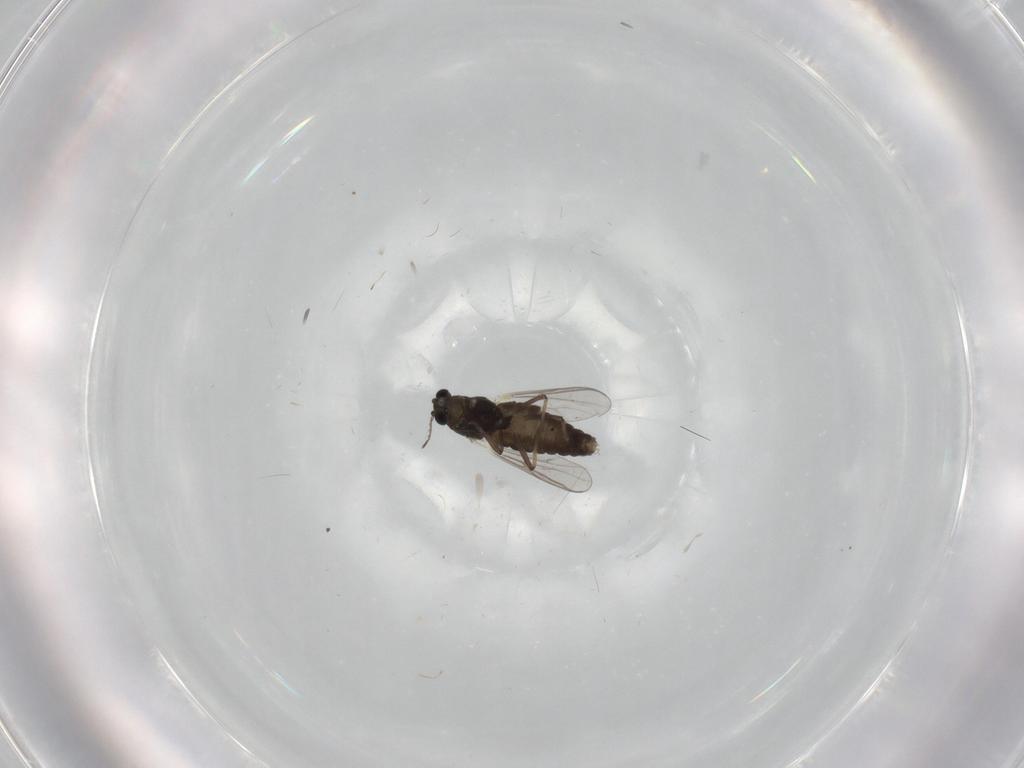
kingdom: Animalia
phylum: Arthropoda
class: Insecta
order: Diptera
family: Chironomidae
